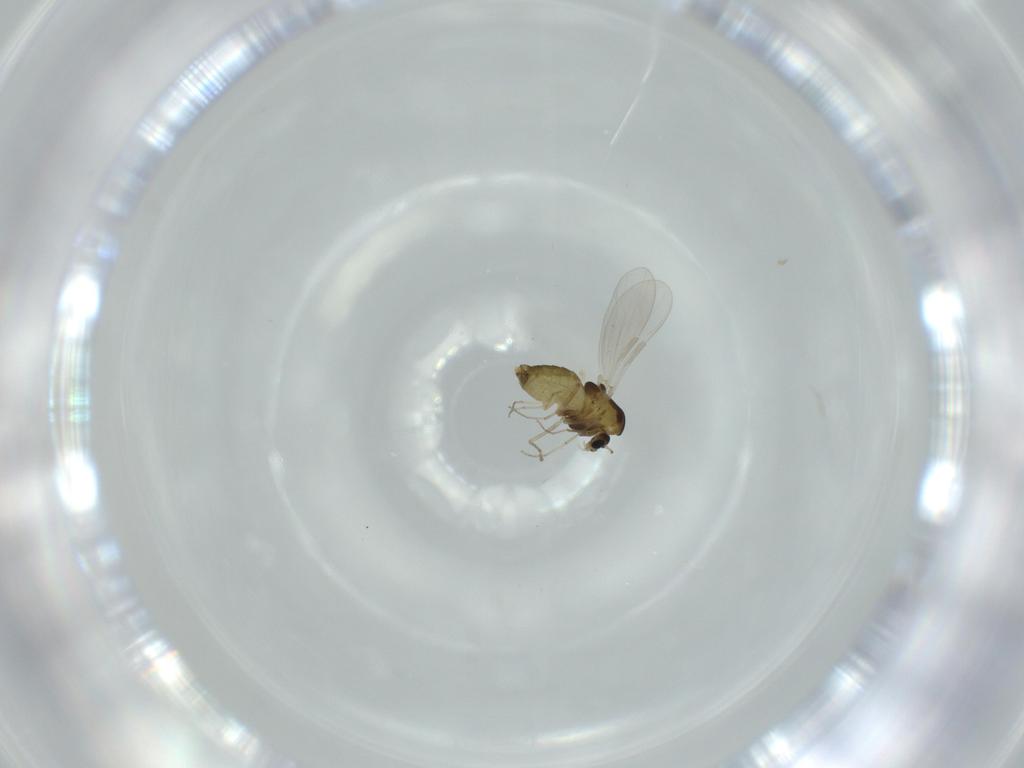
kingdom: Animalia
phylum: Arthropoda
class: Insecta
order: Diptera
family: Chironomidae
